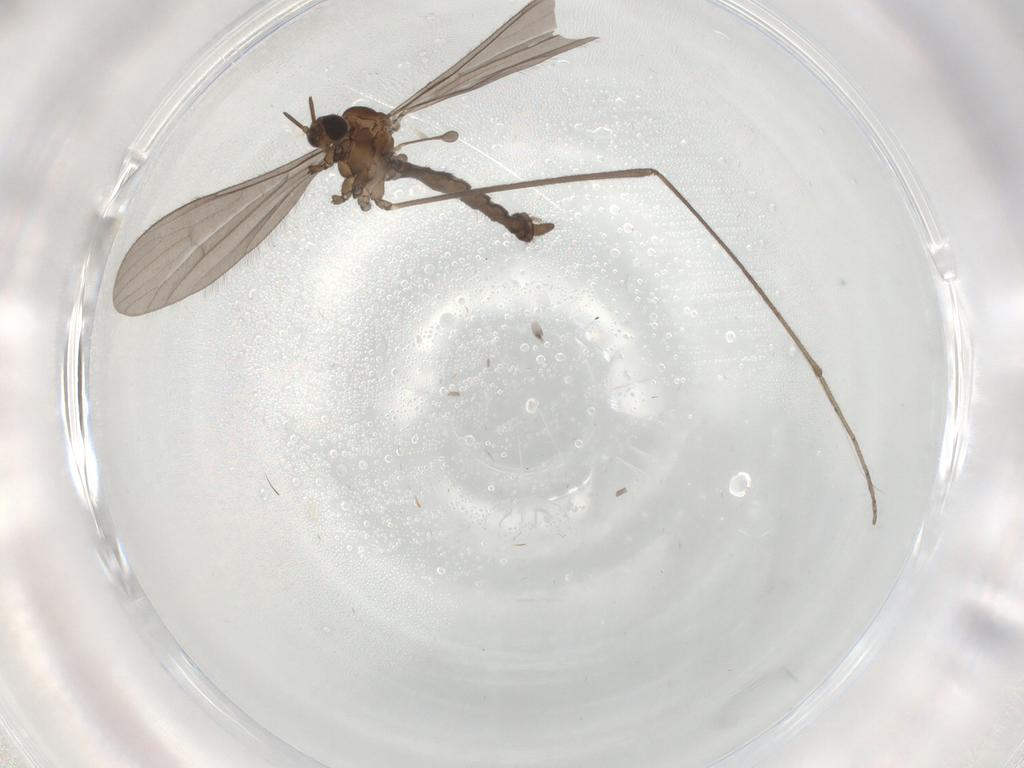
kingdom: Animalia
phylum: Arthropoda
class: Insecta
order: Diptera
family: Limoniidae
